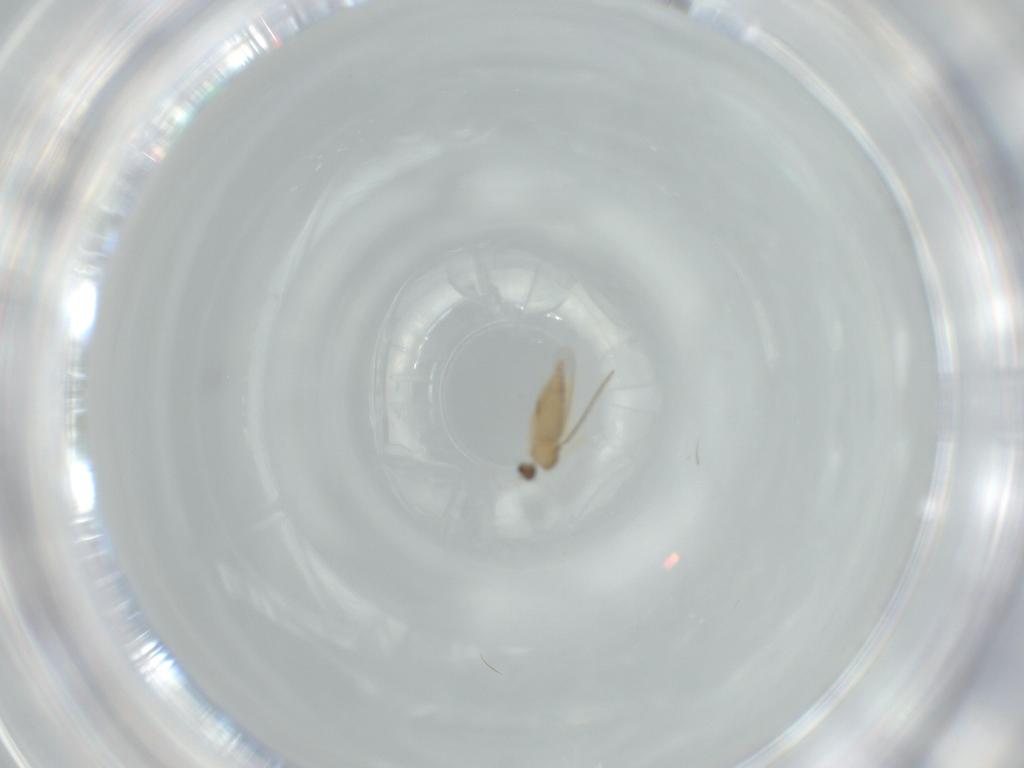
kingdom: Animalia
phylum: Arthropoda
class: Insecta
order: Diptera
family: Cecidomyiidae
